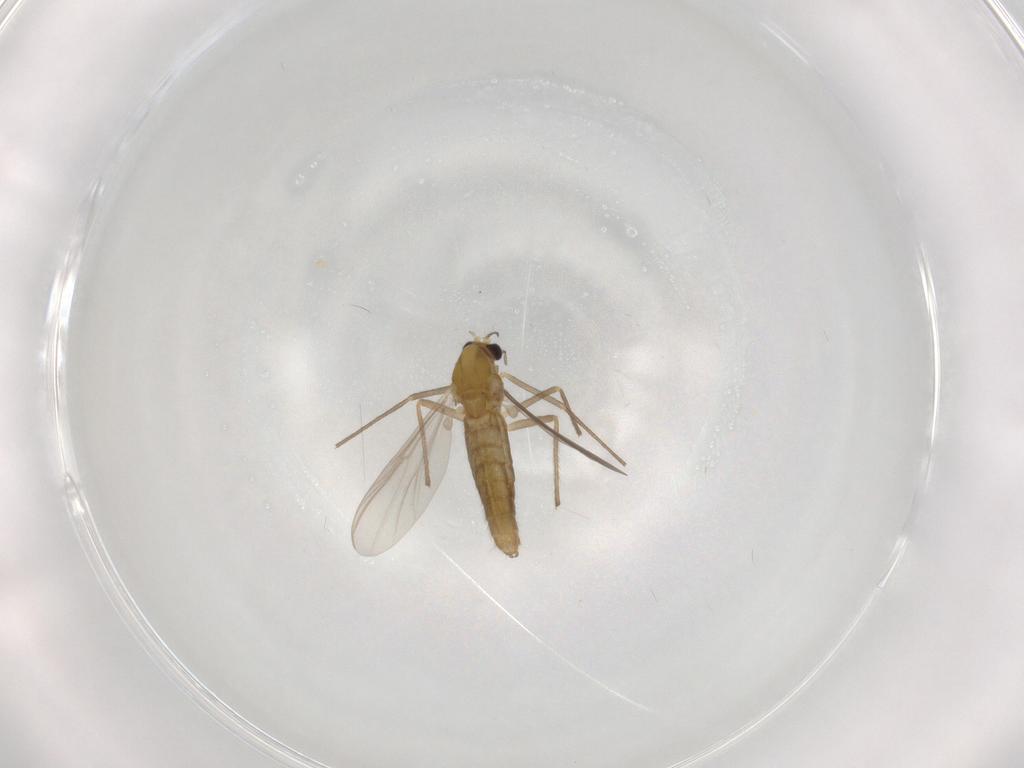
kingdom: Animalia
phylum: Arthropoda
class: Insecta
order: Diptera
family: Chironomidae
